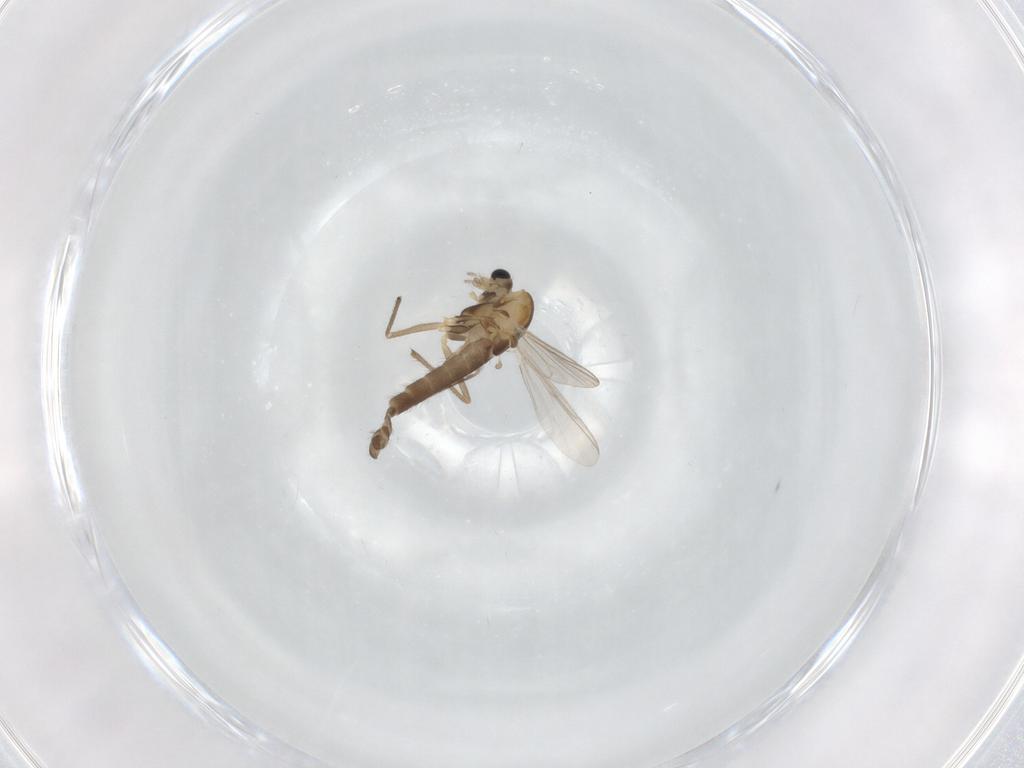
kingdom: Animalia
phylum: Arthropoda
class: Insecta
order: Diptera
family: Chironomidae
